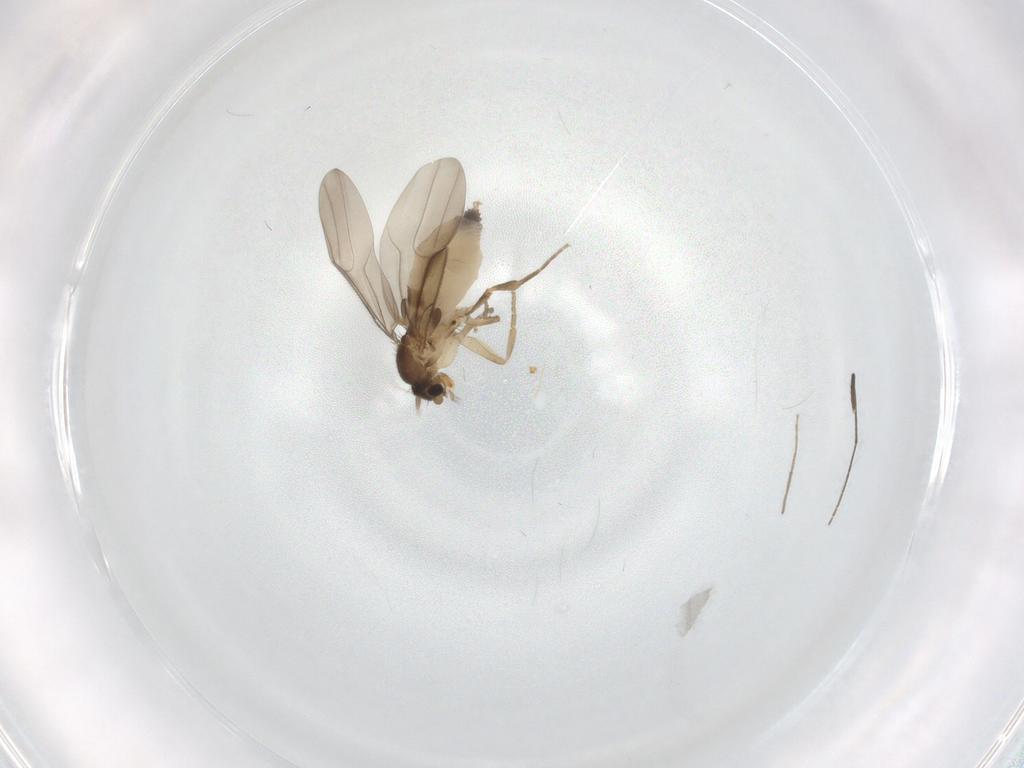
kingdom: Animalia
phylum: Arthropoda
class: Insecta
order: Diptera
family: Phoridae
